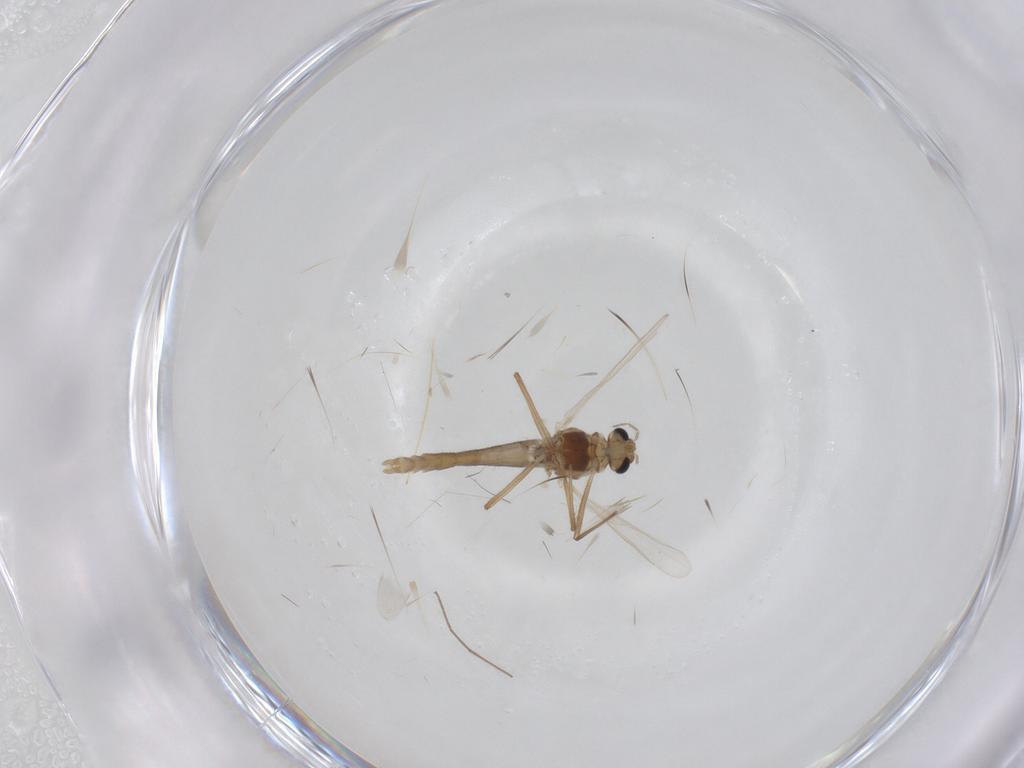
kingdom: Animalia
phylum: Arthropoda
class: Insecta
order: Diptera
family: Chironomidae
